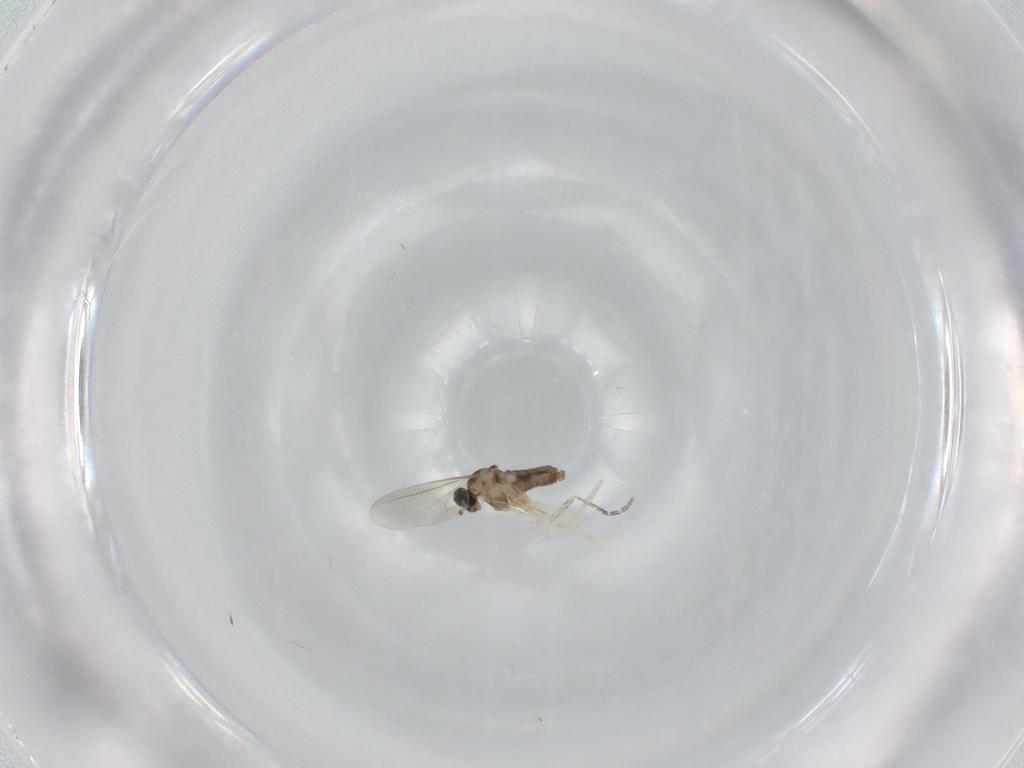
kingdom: Animalia
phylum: Arthropoda
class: Insecta
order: Diptera
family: Cecidomyiidae
